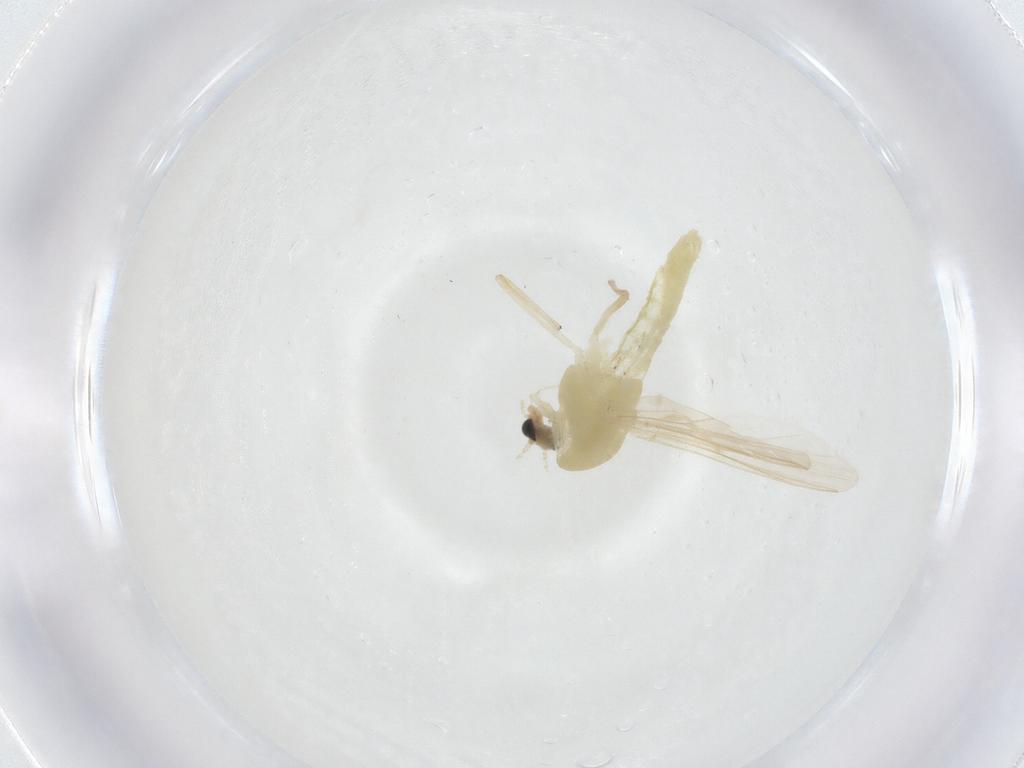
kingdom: Animalia
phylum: Arthropoda
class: Insecta
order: Diptera
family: Chironomidae
